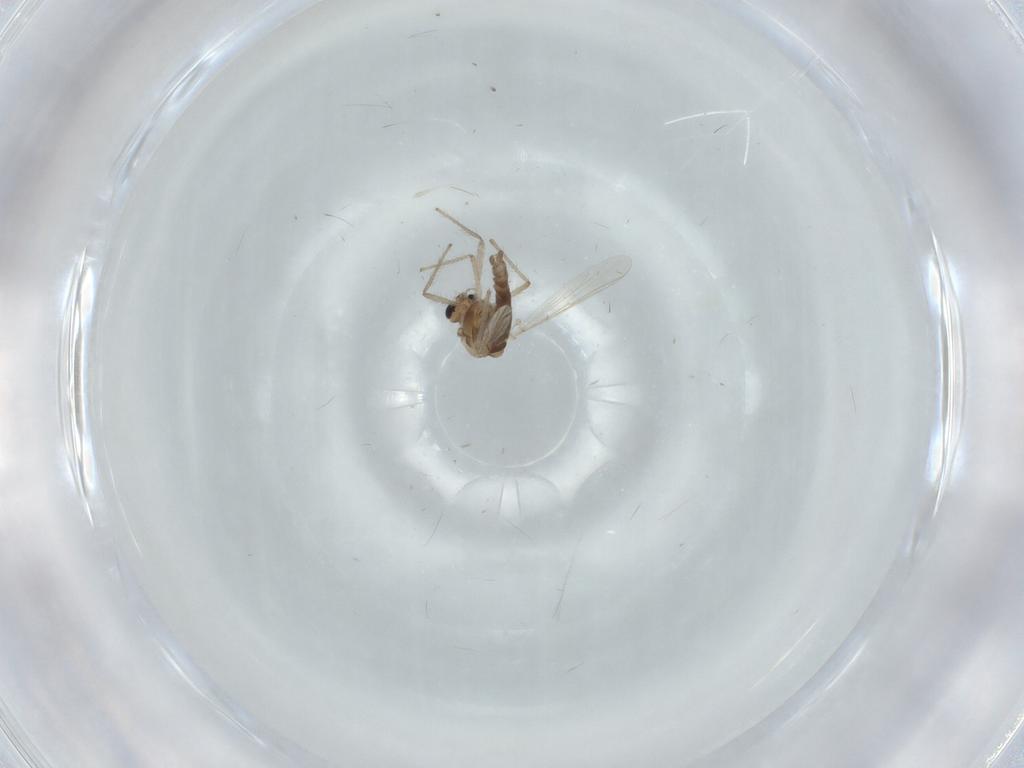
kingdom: Animalia
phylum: Arthropoda
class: Insecta
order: Diptera
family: Chironomidae
